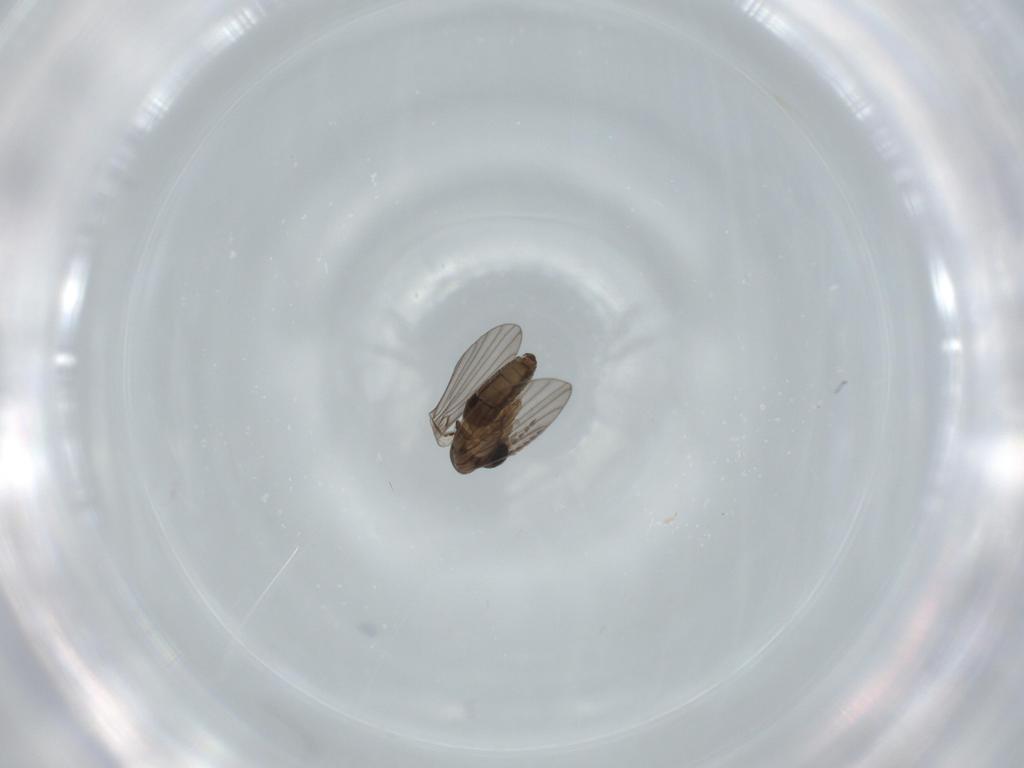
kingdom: Animalia
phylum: Arthropoda
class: Insecta
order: Diptera
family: Psychodidae
